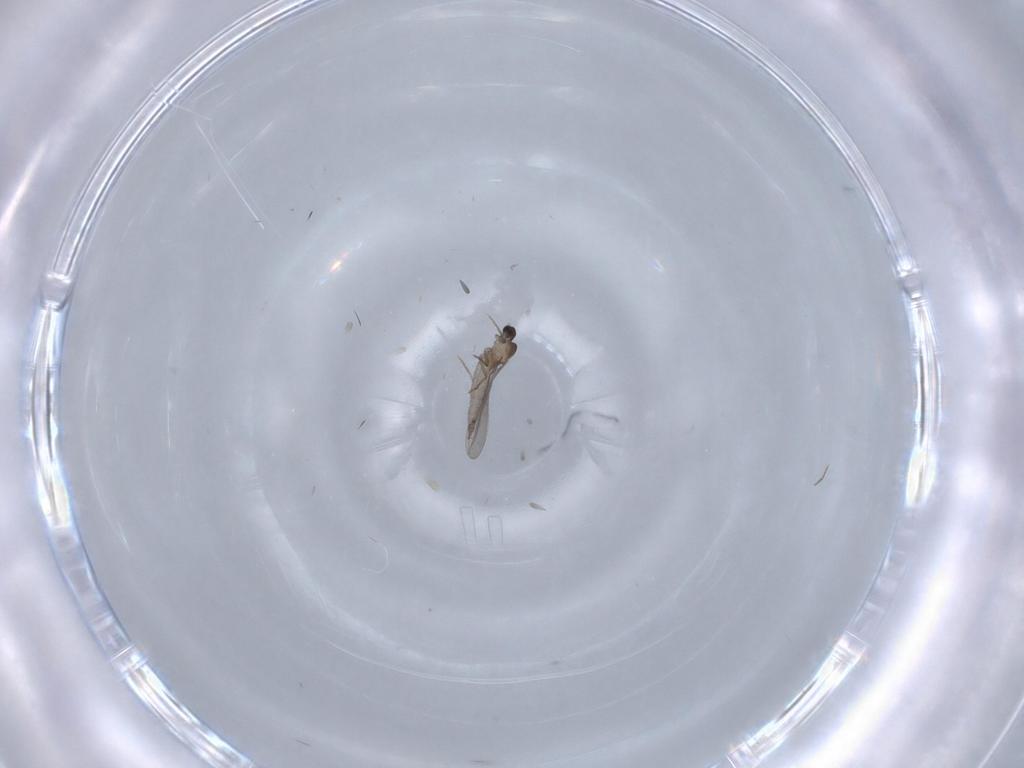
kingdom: Animalia
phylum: Arthropoda
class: Insecta
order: Diptera
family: Cecidomyiidae
